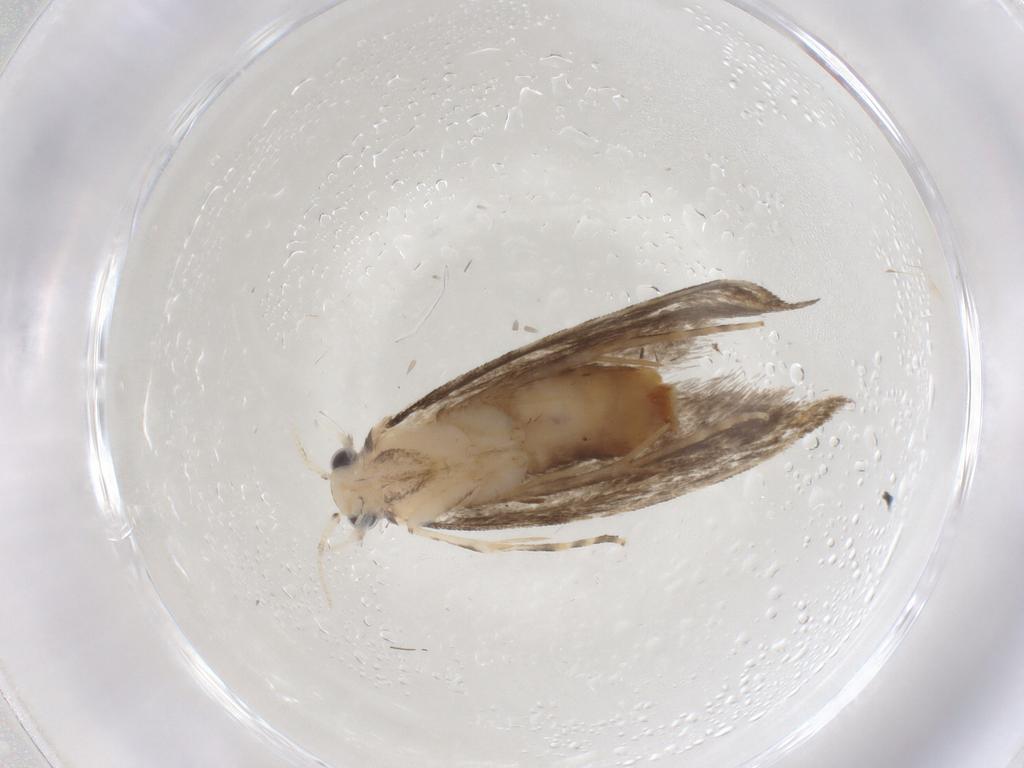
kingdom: Animalia
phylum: Arthropoda
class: Insecta
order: Lepidoptera
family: Tineidae
